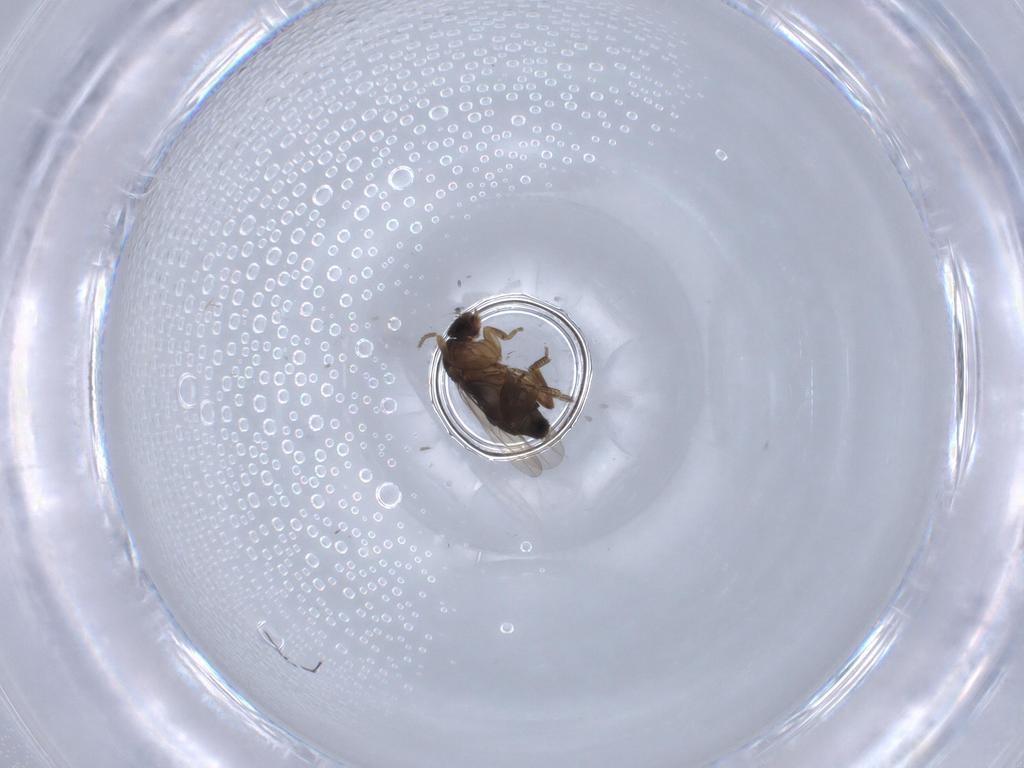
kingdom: Animalia
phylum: Arthropoda
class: Insecta
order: Diptera
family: Phoridae
